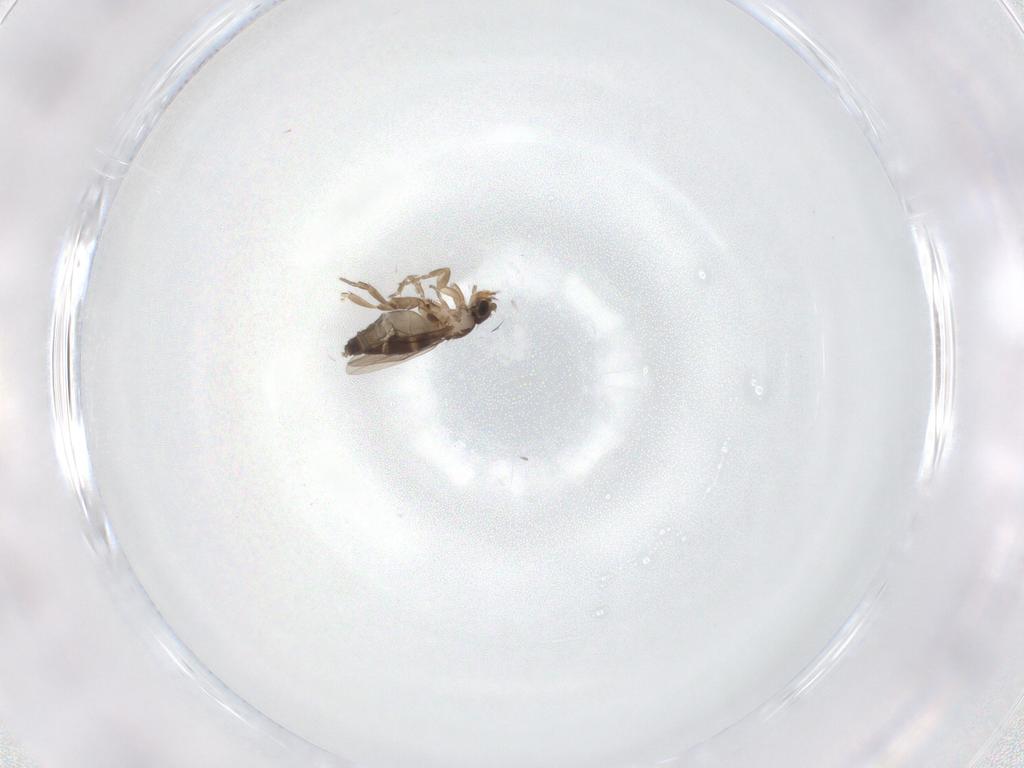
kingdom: Animalia
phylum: Arthropoda
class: Insecta
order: Diptera
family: Phoridae
